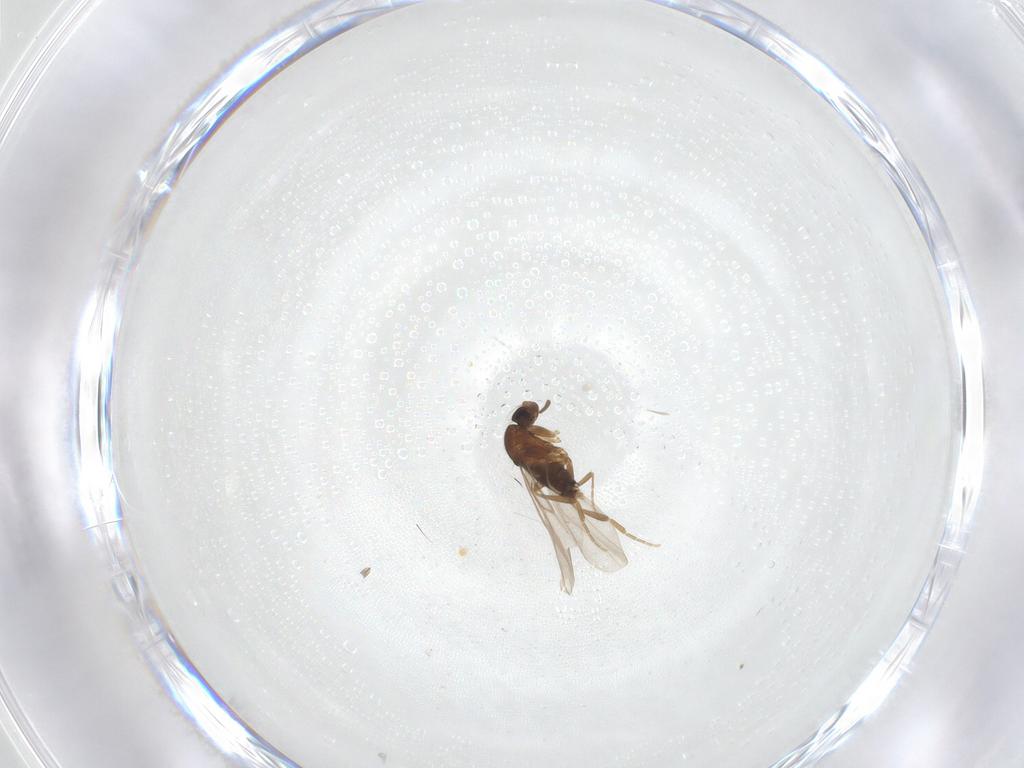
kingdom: Animalia
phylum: Arthropoda
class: Insecta
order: Diptera
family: Phoridae
